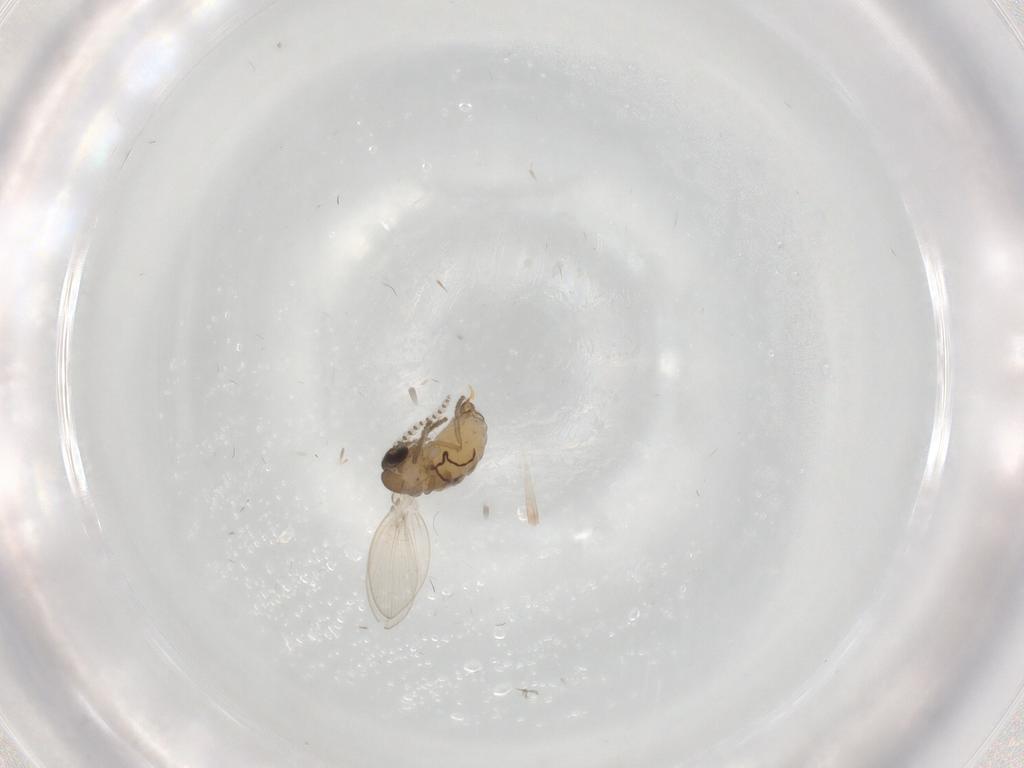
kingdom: Animalia
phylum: Arthropoda
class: Insecta
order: Diptera
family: Psychodidae
